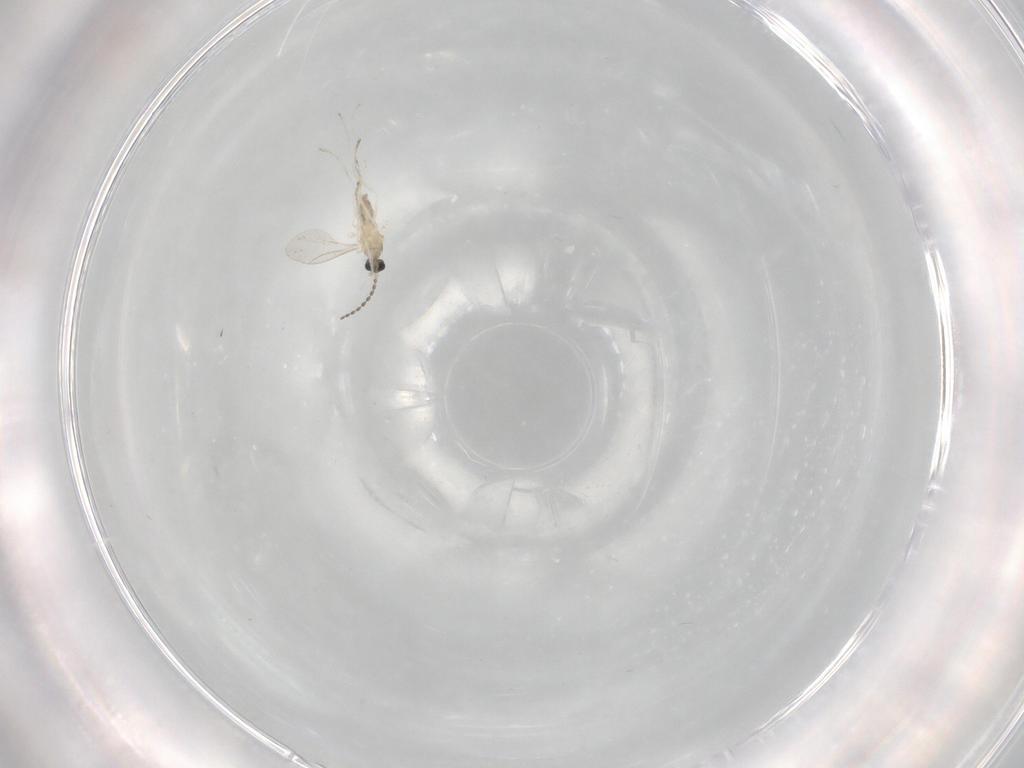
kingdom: Animalia
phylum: Arthropoda
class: Insecta
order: Diptera
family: Cecidomyiidae
